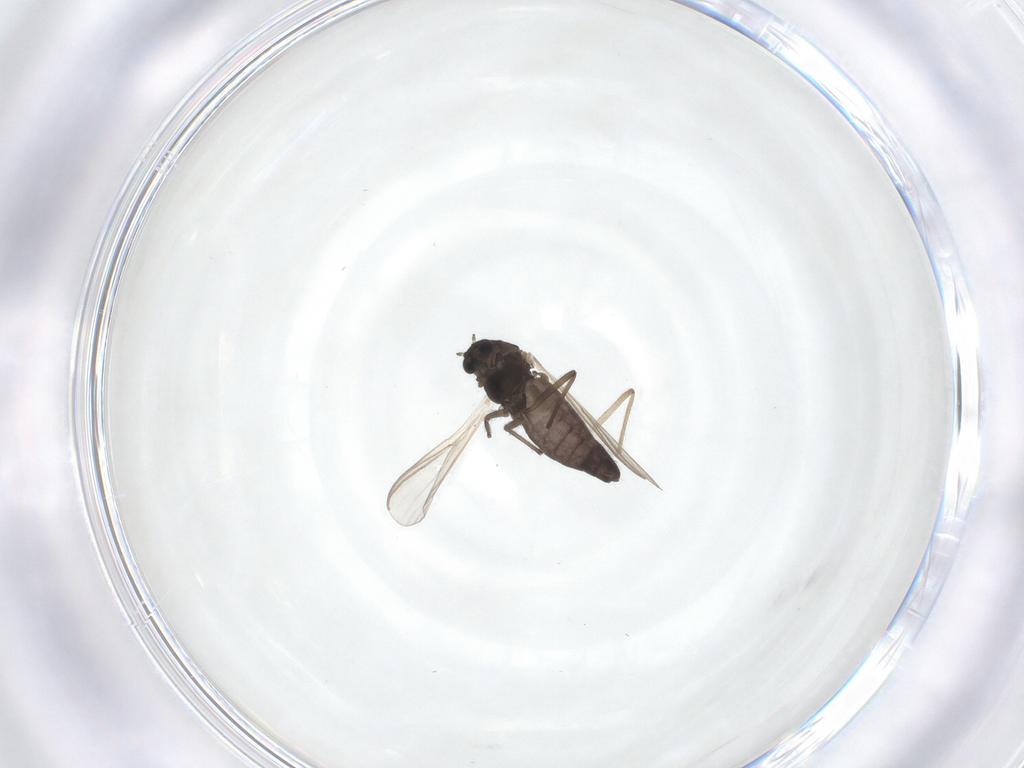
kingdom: Animalia
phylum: Arthropoda
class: Insecta
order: Diptera
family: Chironomidae
